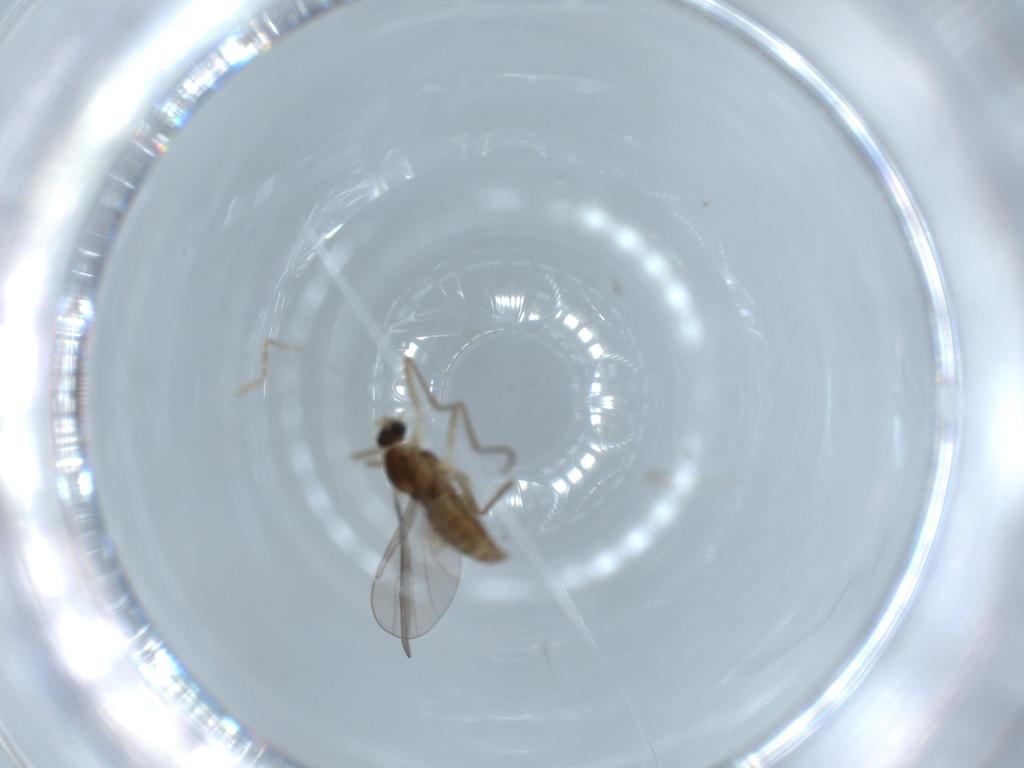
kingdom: Animalia
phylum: Arthropoda
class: Insecta
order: Diptera
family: Ceratopogonidae
